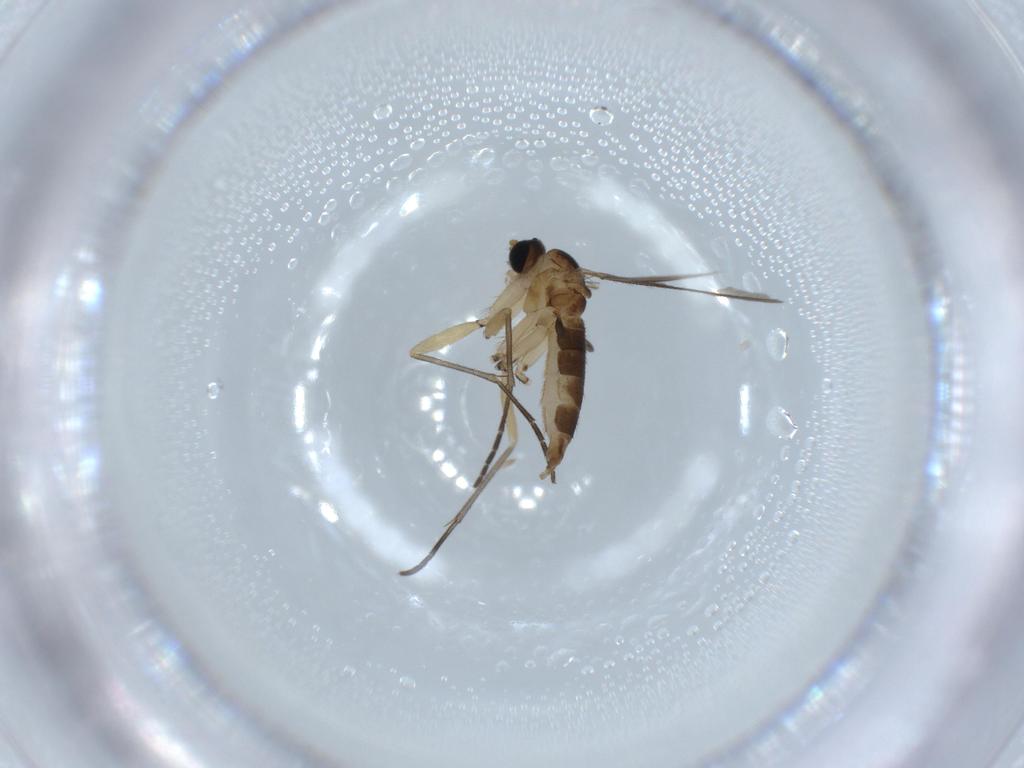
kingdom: Animalia
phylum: Arthropoda
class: Insecta
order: Diptera
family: Sciaridae
